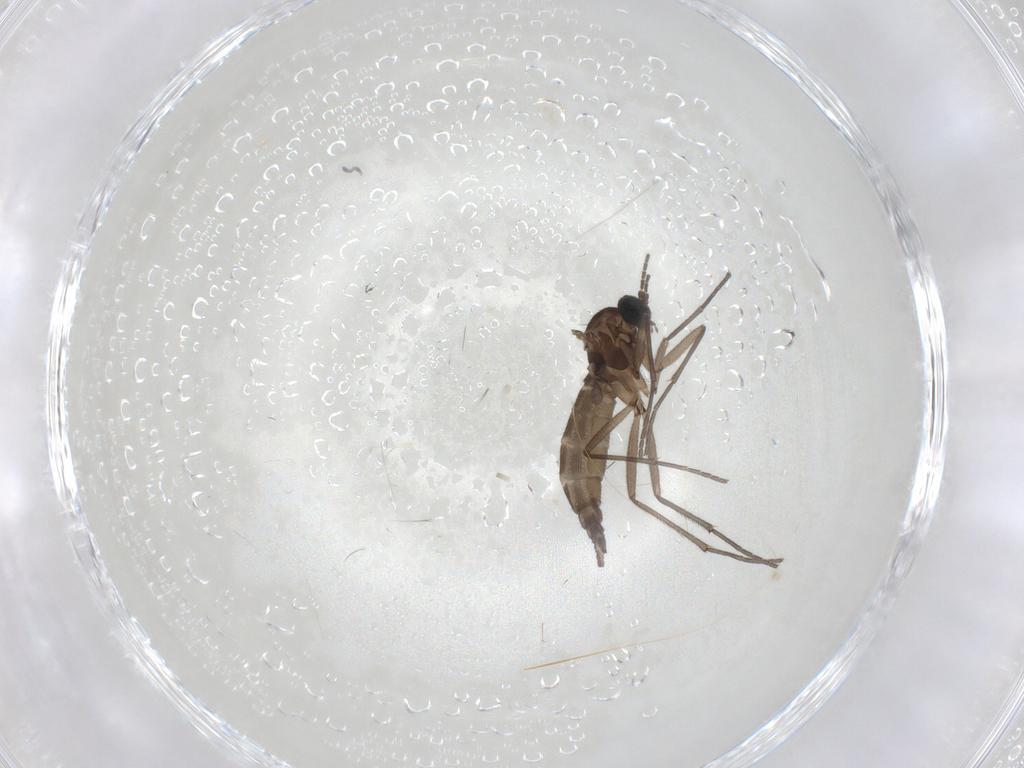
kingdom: Animalia
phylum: Arthropoda
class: Insecta
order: Diptera
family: Sciaridae
